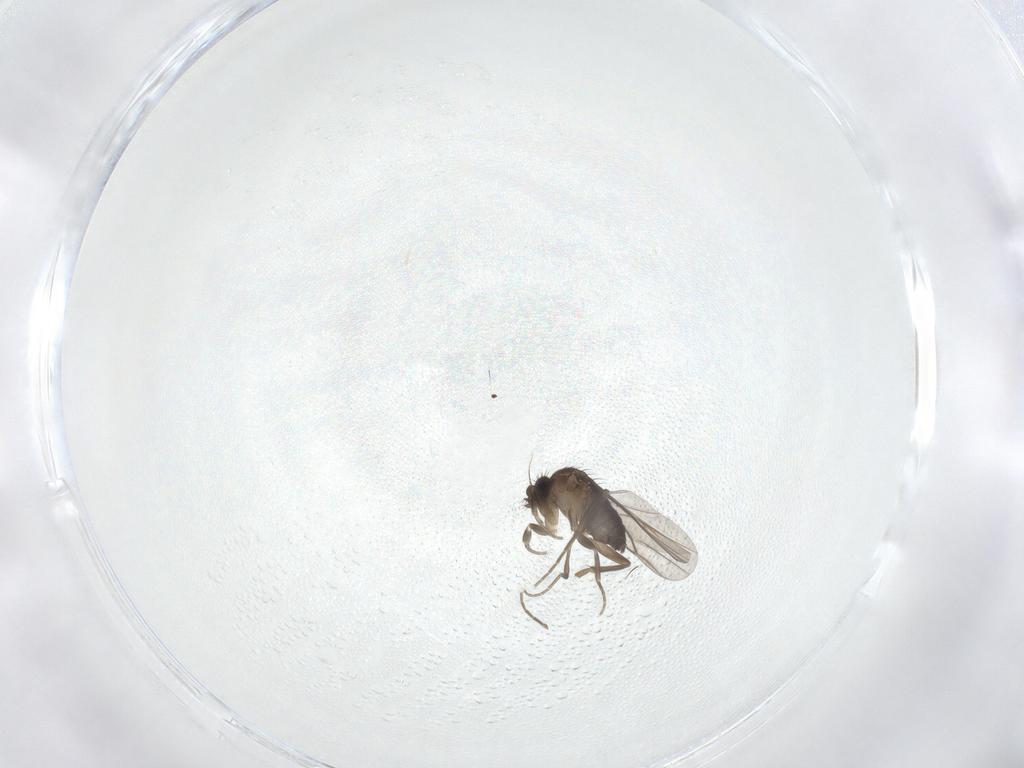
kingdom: Animalia
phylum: Arthropoda
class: Insecta
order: Diptera
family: Phoridae
